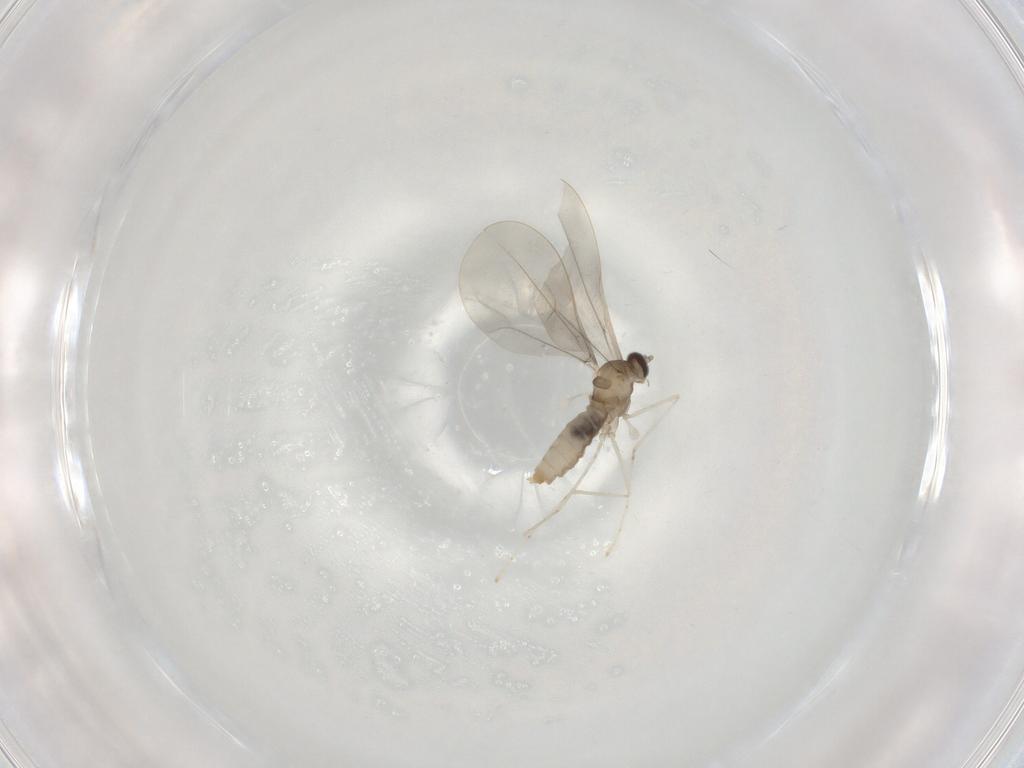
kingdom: Animalia
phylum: Arthropoda
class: Insecta
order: Diptera
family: Cecidomyiidae
